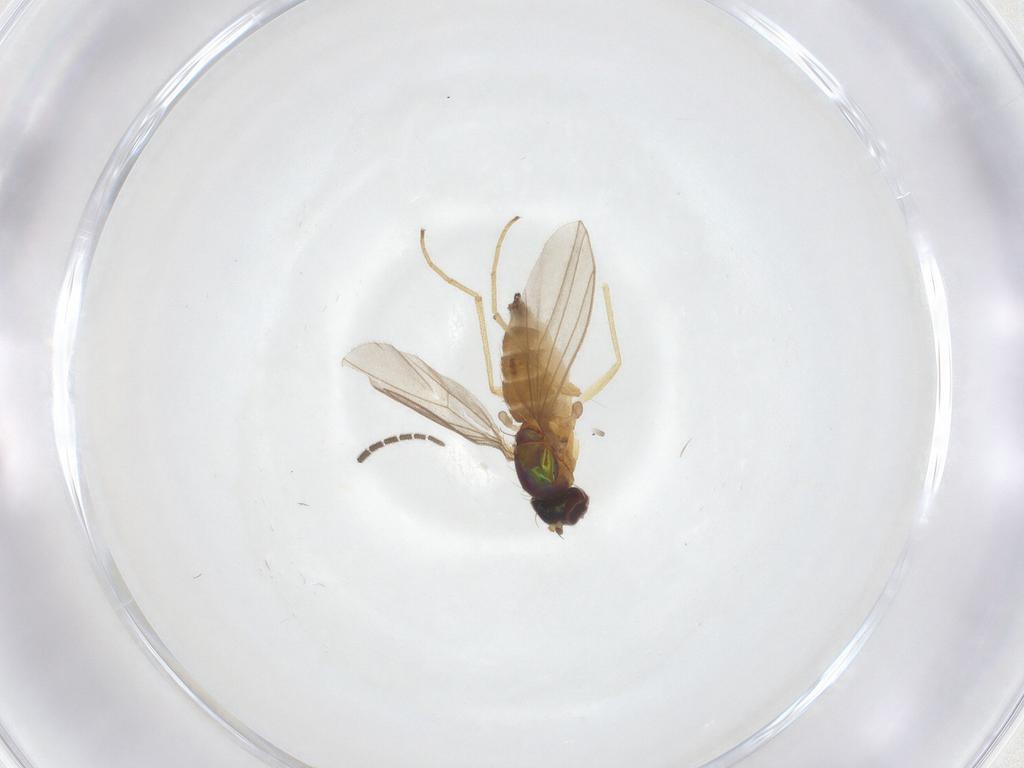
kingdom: Animalia
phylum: Arthropoda
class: Insecta
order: Diptera
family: Dolichopodidae
